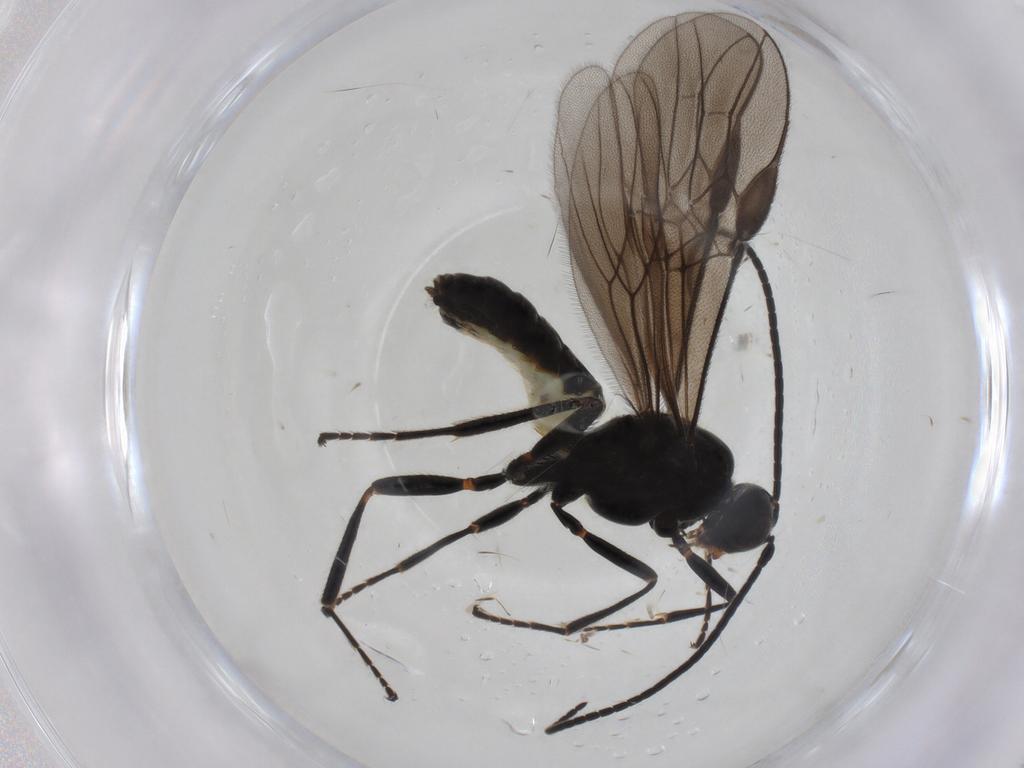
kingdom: Animalia
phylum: Arthropoda
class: Insecta
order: Hymenoptera
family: Braconidae
